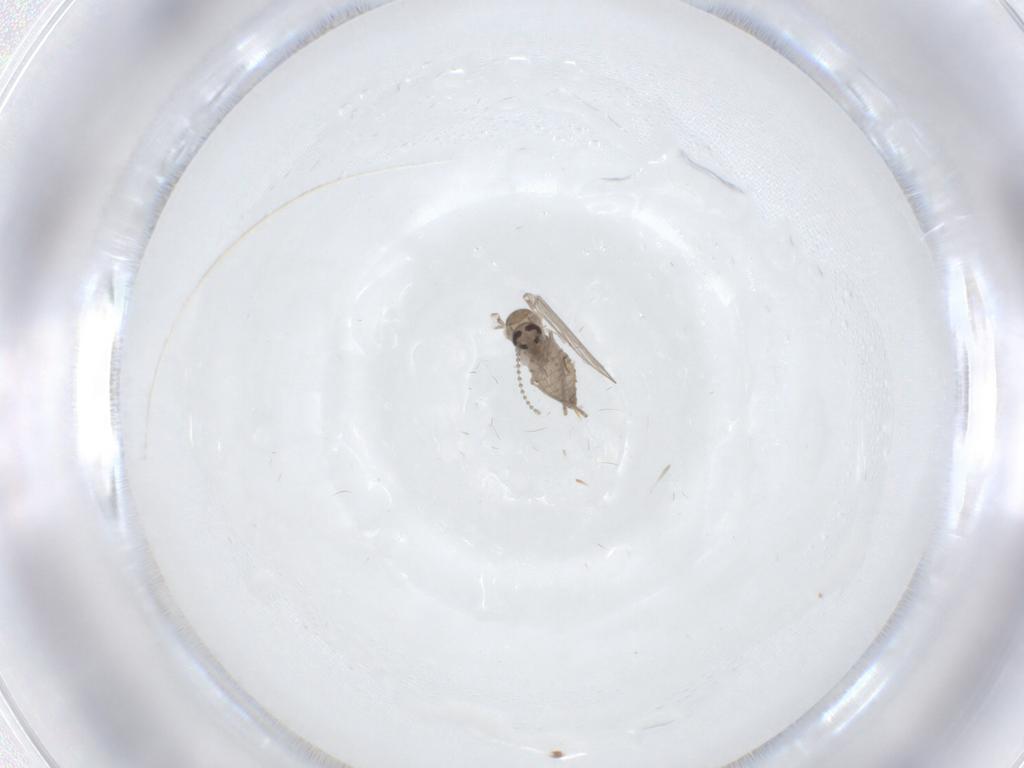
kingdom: Animalia
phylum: Arthropoda
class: Insecta
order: Diptera
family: Psychodidae
